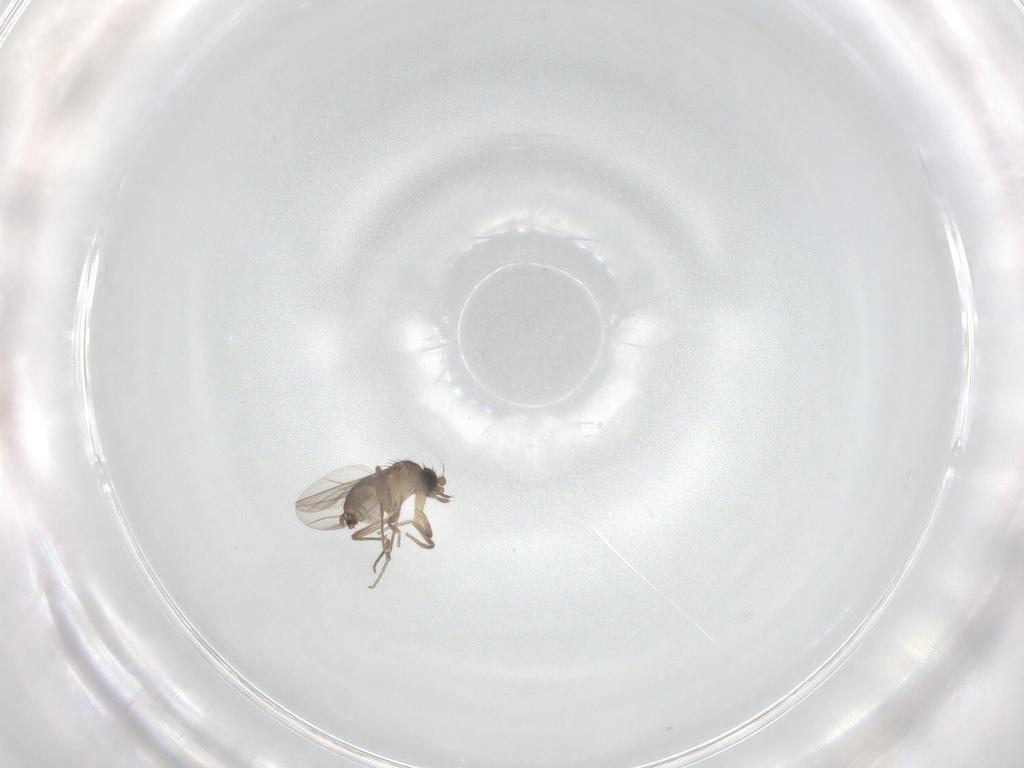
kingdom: Animalia
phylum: Arthropoda
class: Insecta
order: Diptera
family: Phoridae
